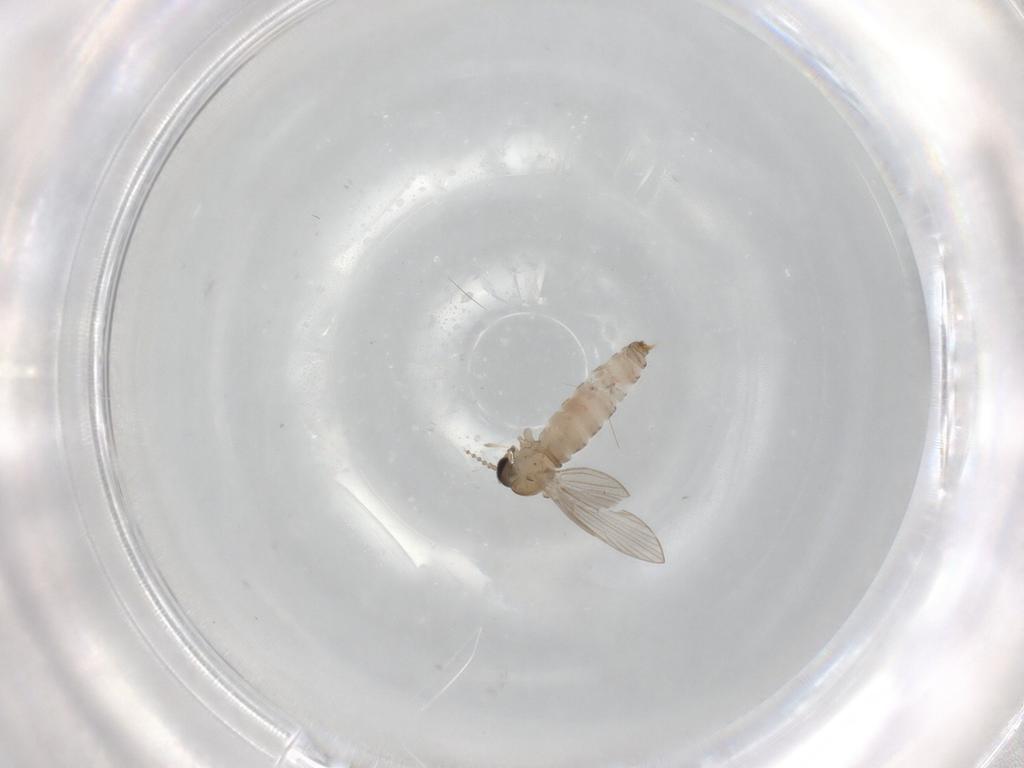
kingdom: Animalia
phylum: Arthropoda
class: Insecta
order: Diptera
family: Psychodidae
